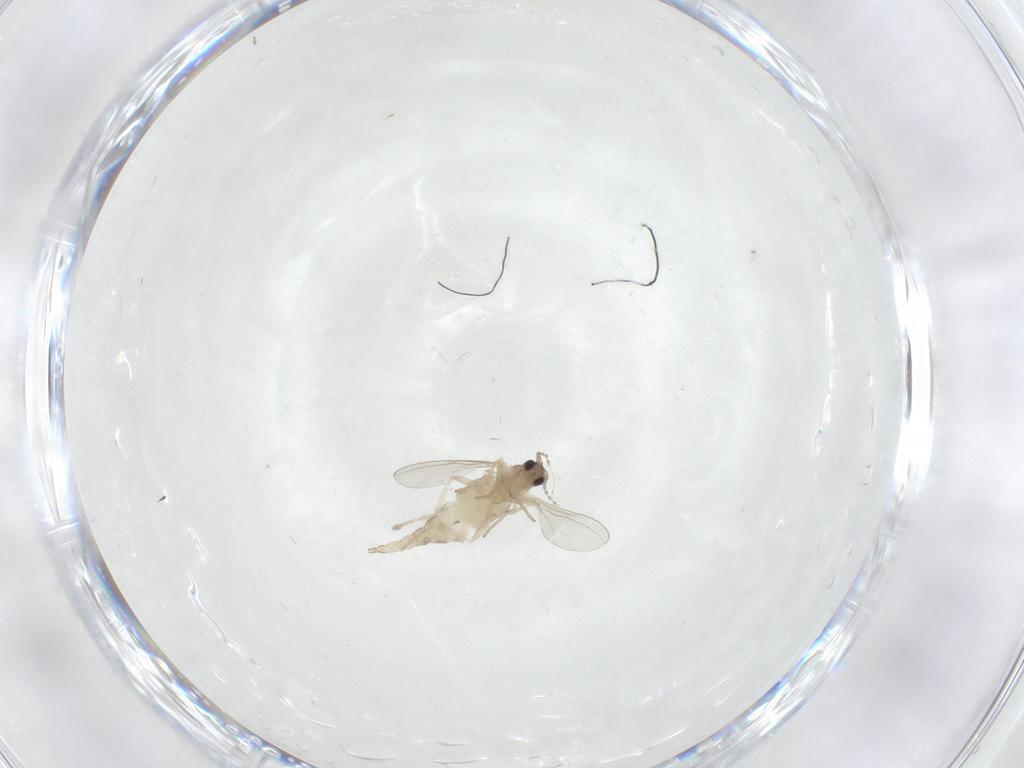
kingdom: Animalia
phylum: Arthropoda
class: Insecta
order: Diptera
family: Cecidomyiidae
